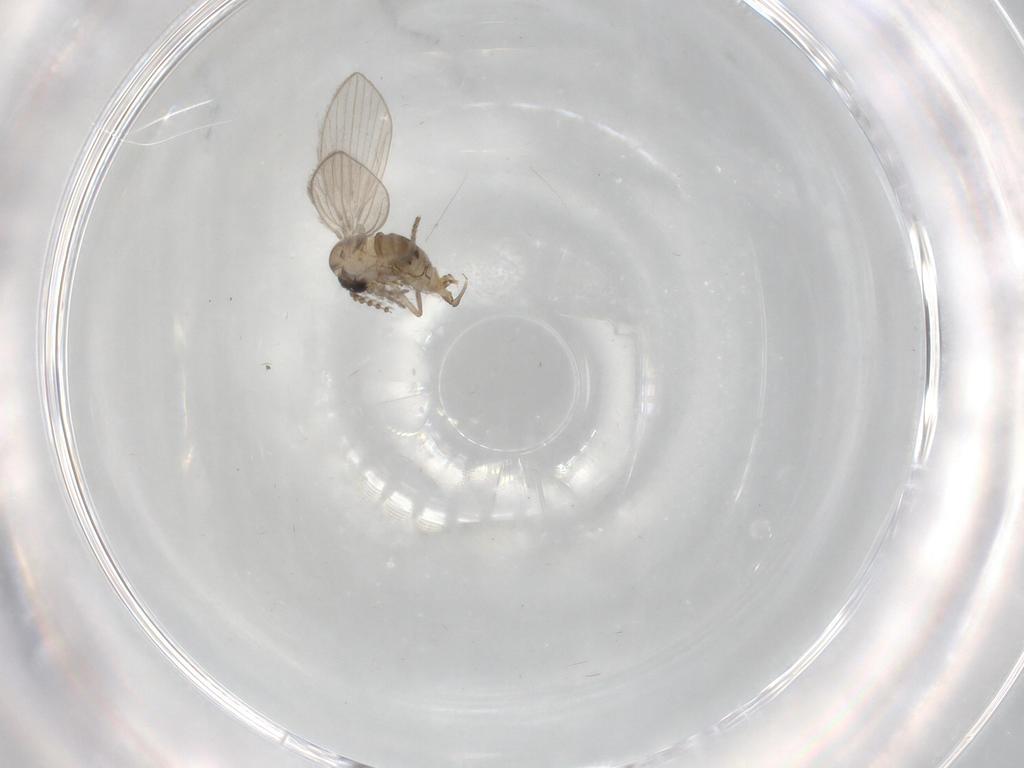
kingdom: Animalia
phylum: Arthropoda
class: Insecta
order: Diptera
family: Psychodidae
